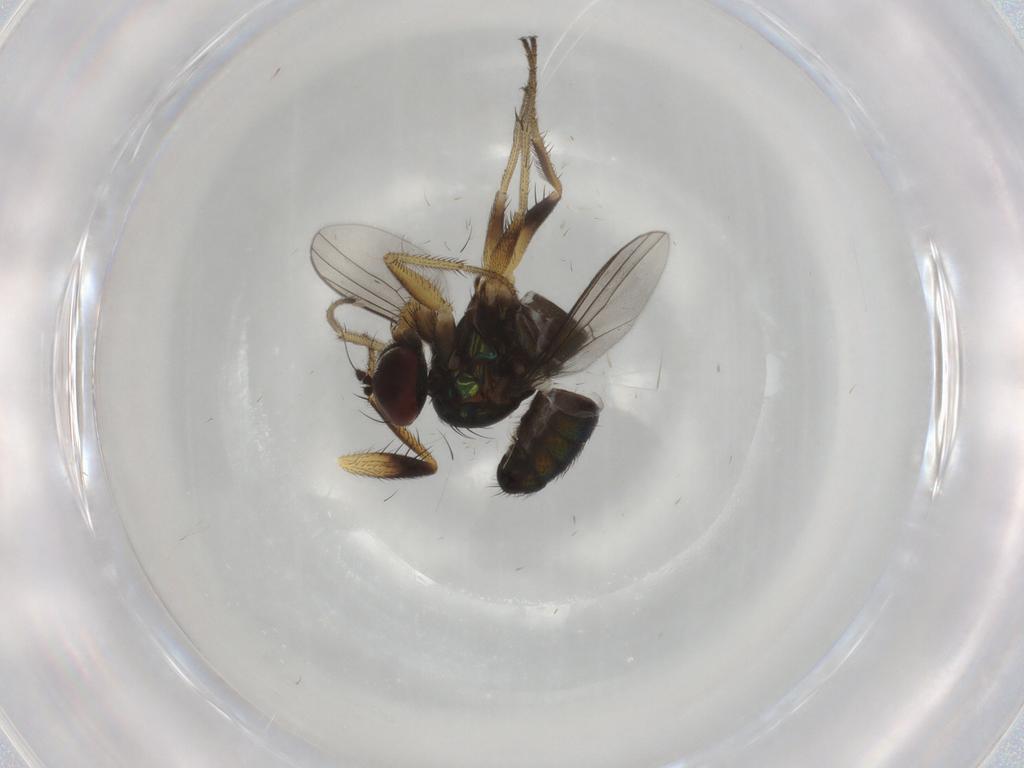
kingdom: Animalia
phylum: Arthropoda
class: Insecta
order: Diptera
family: Dolichopodidae
